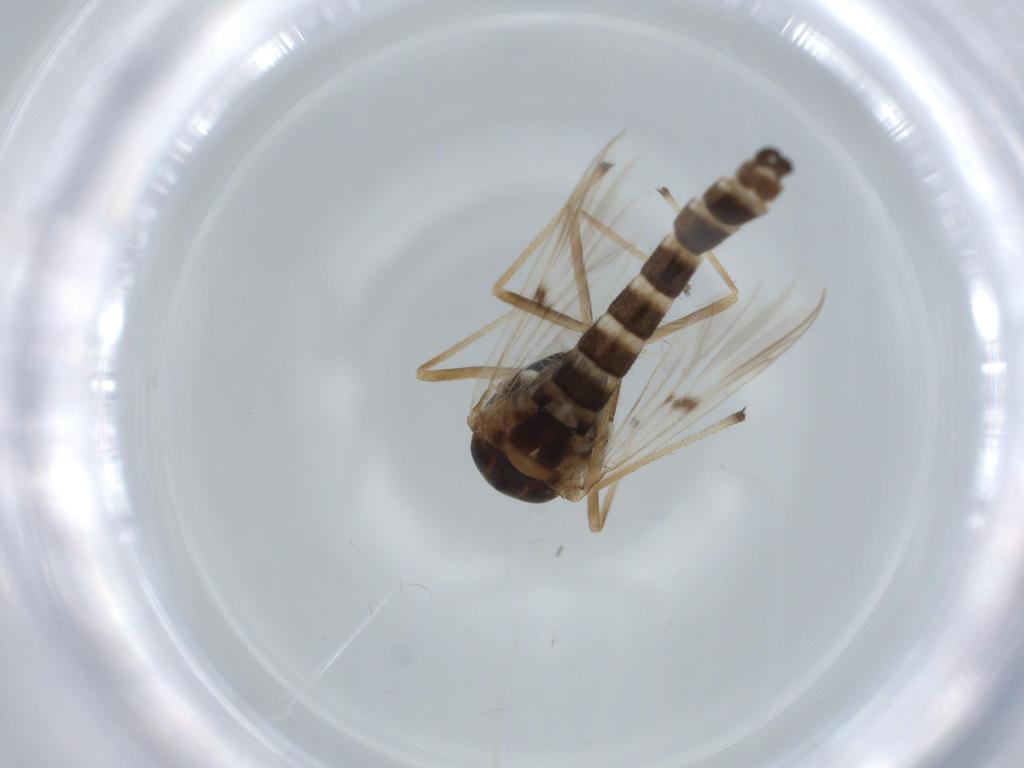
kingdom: Animalia
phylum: Arthropoda
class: Insecta
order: Diptera
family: Chironomidae
